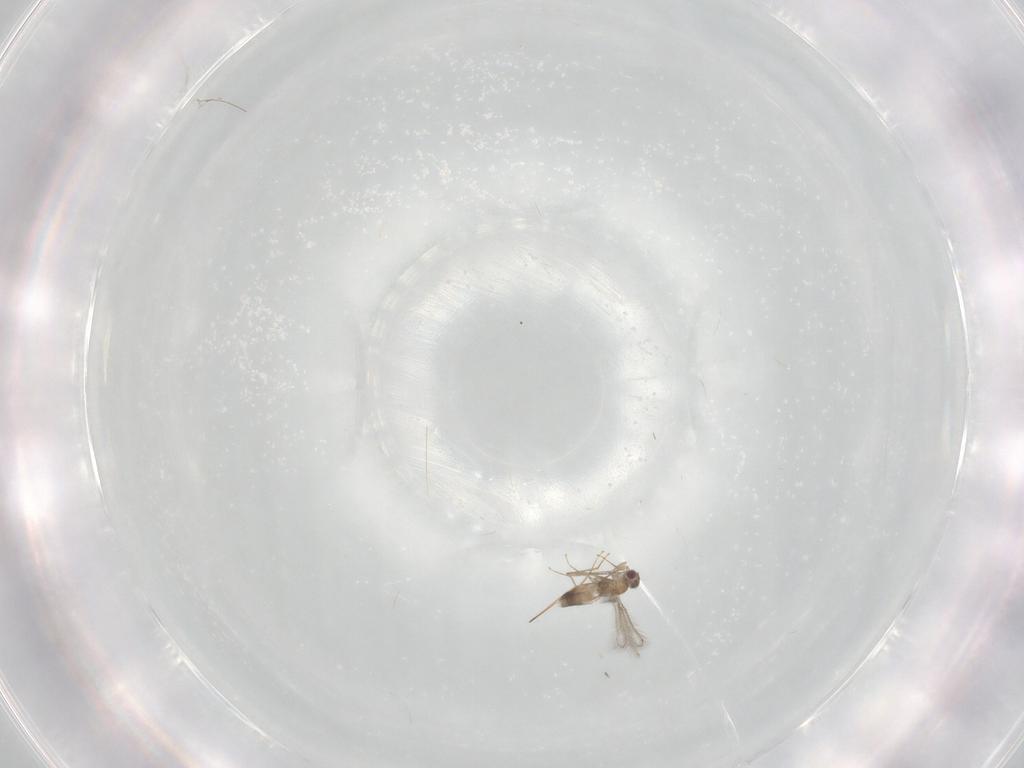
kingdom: Animalia
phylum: Arthropoda
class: Insecta
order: Hymenoptera
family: Mymaridae
